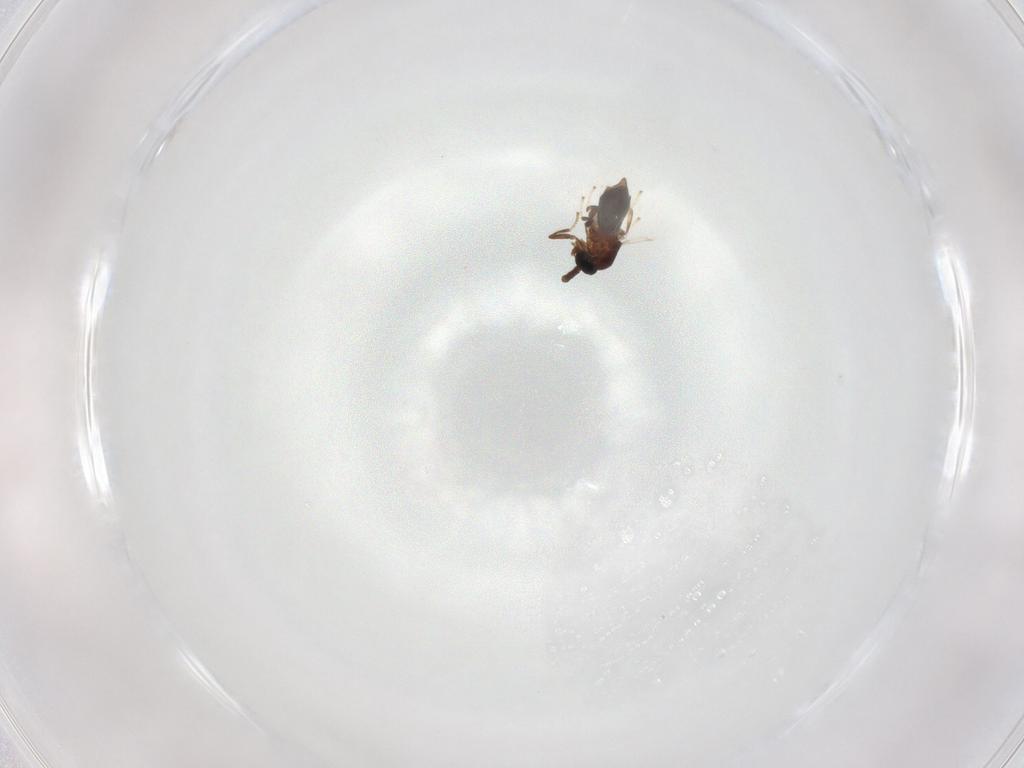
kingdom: Animalia
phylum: Arthropoda
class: Insecta
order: Diptera
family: Scatopsidae
